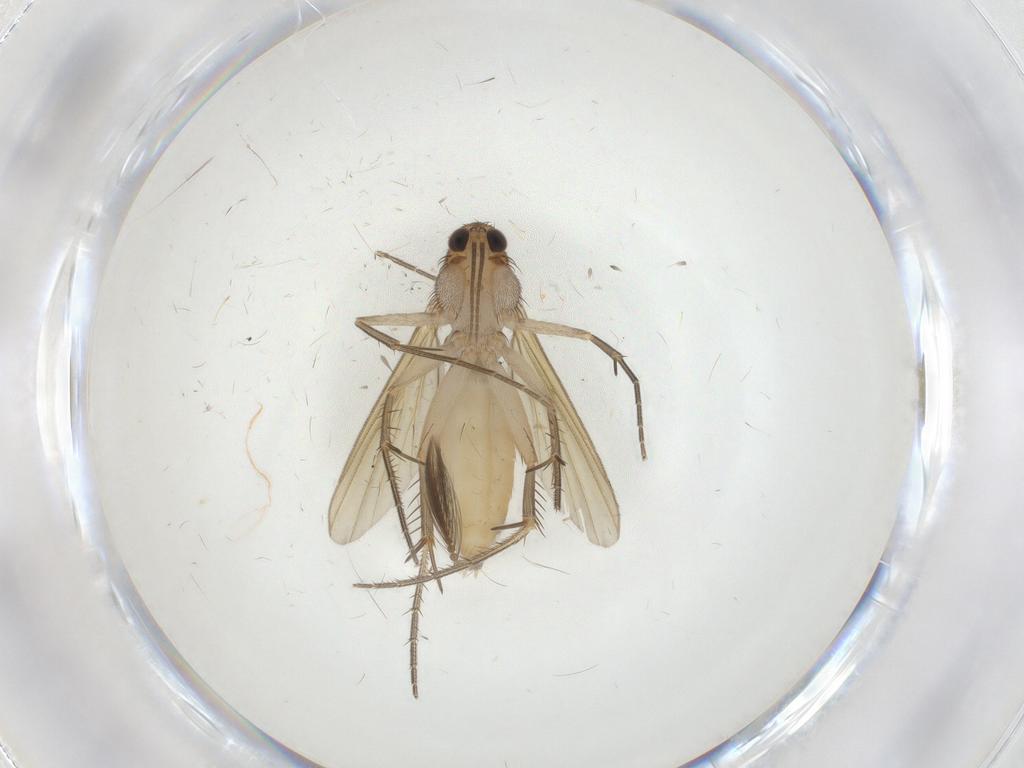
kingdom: Animalia
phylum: Arthropoda
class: Insecta
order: Diptera
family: Mycetophilidae
